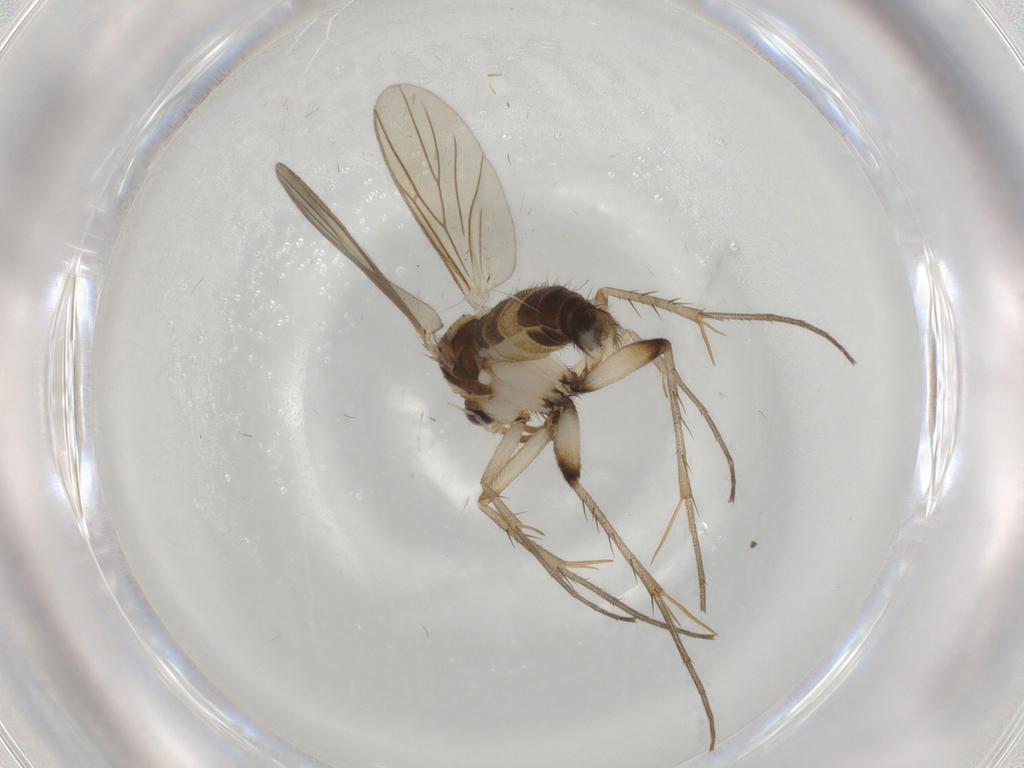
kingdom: Animalia
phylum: Arthropoda
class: Insecta
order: Diptera
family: Mycetophilidae
